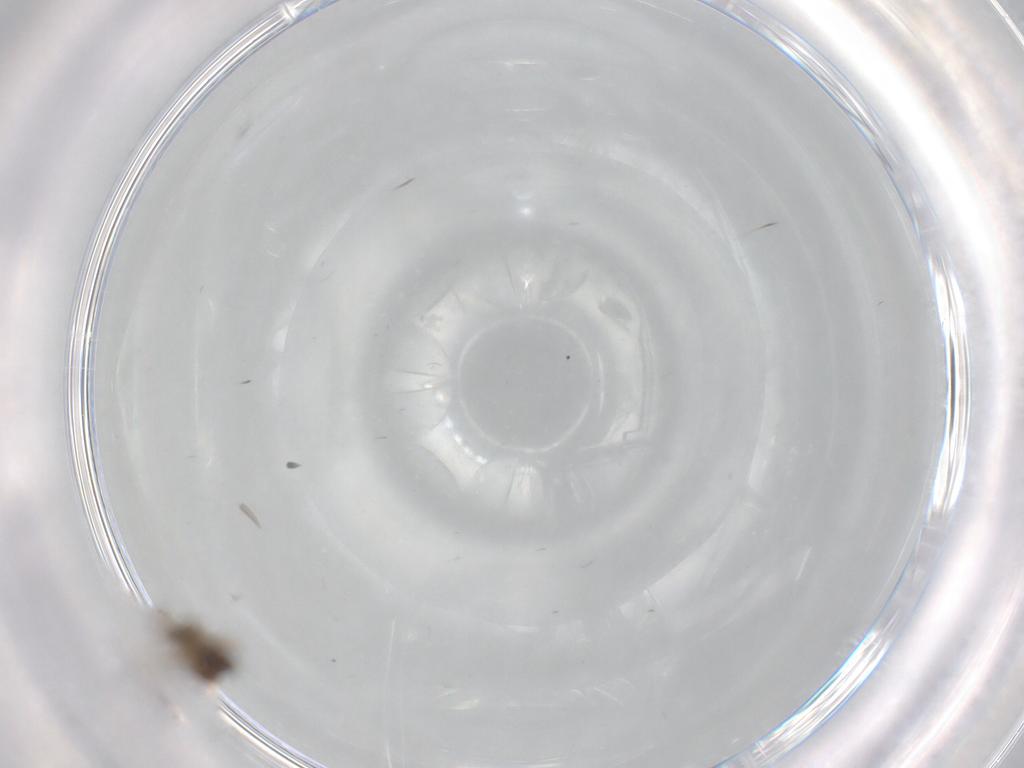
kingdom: Animalia
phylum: Arthropoda
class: Insecta
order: Diptera
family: Cecidomyiidae
